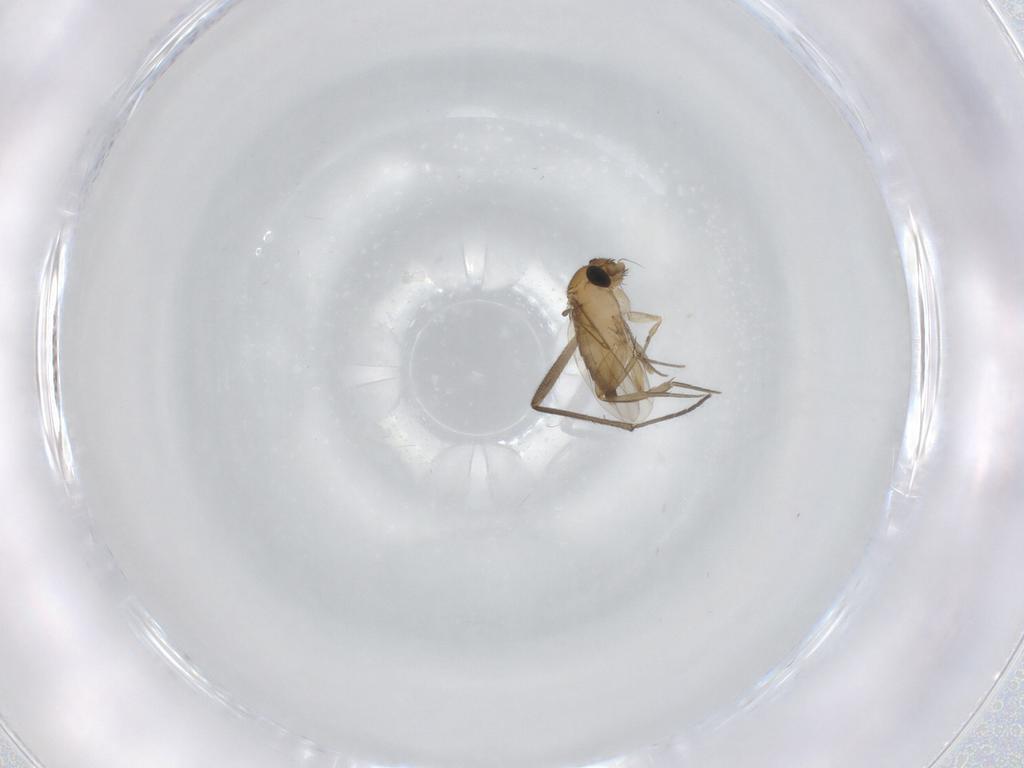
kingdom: Animalia
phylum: Arthropoda
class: Insecta
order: Diptera
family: Phoridae
